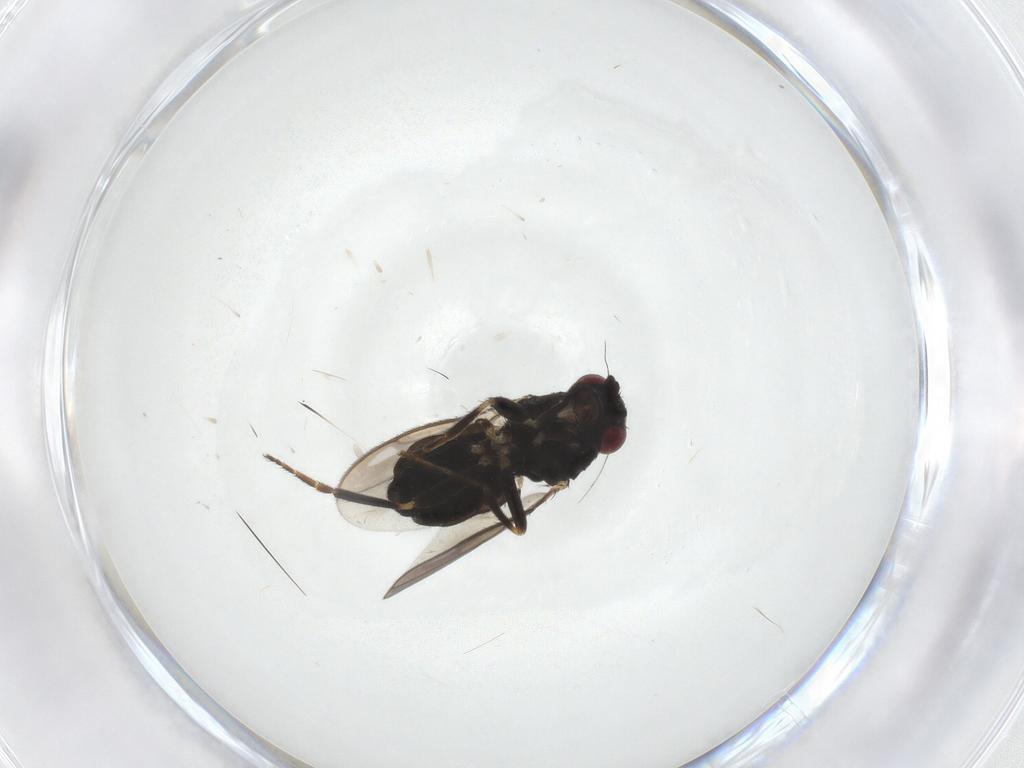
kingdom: Animalia
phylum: Arthropoda
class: Insecta
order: Diptera
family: Sphaeroceridae
